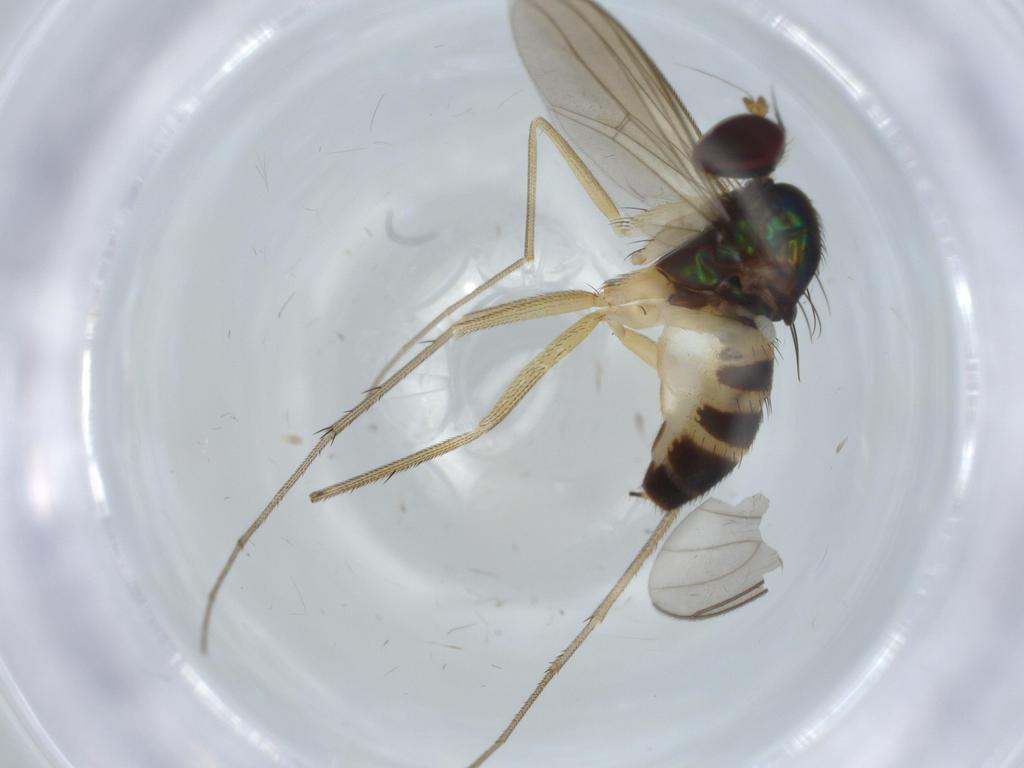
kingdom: Animalia
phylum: Arthropoda
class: Insecta
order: Diptera
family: Dolichopodidae
